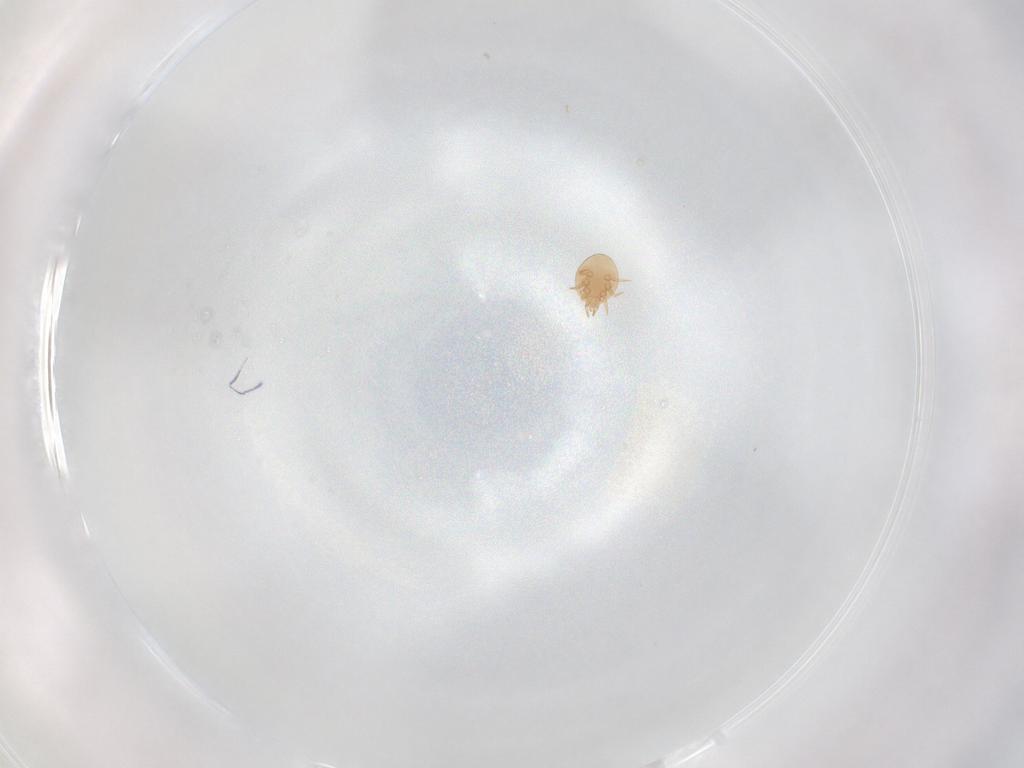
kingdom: Animalia
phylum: Arthropoda
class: Arachnida
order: Mesostigmata
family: Trematuridae
